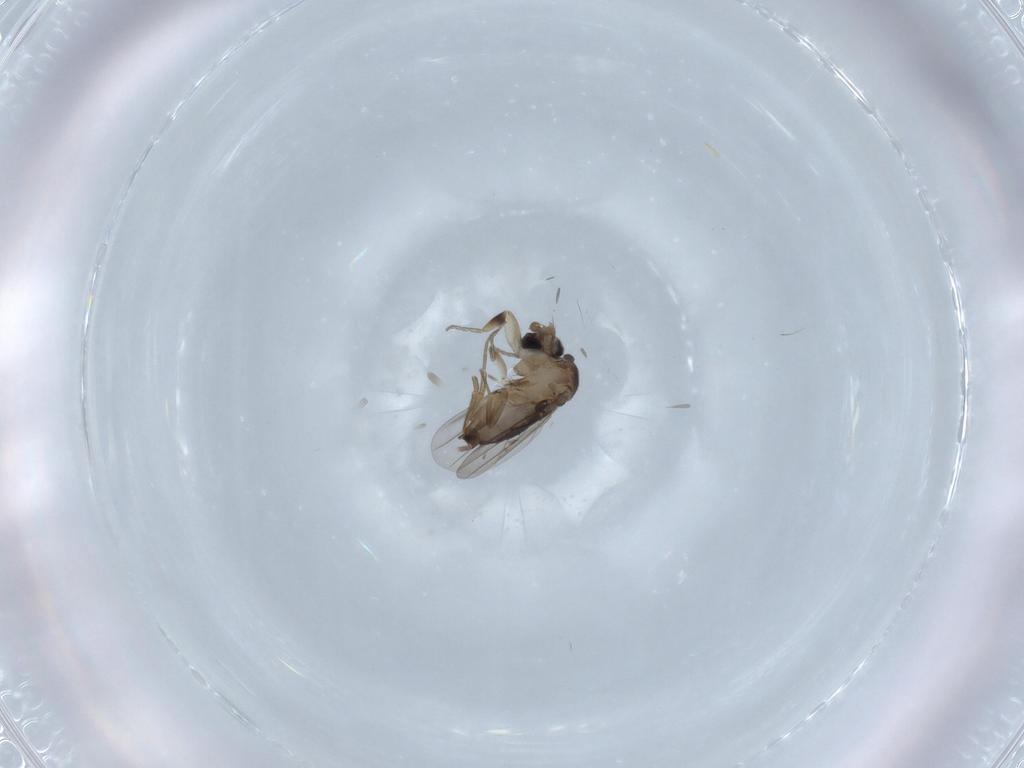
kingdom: Animalia
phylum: Arthropoda
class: Insecta
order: Diptera
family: Phoridae
